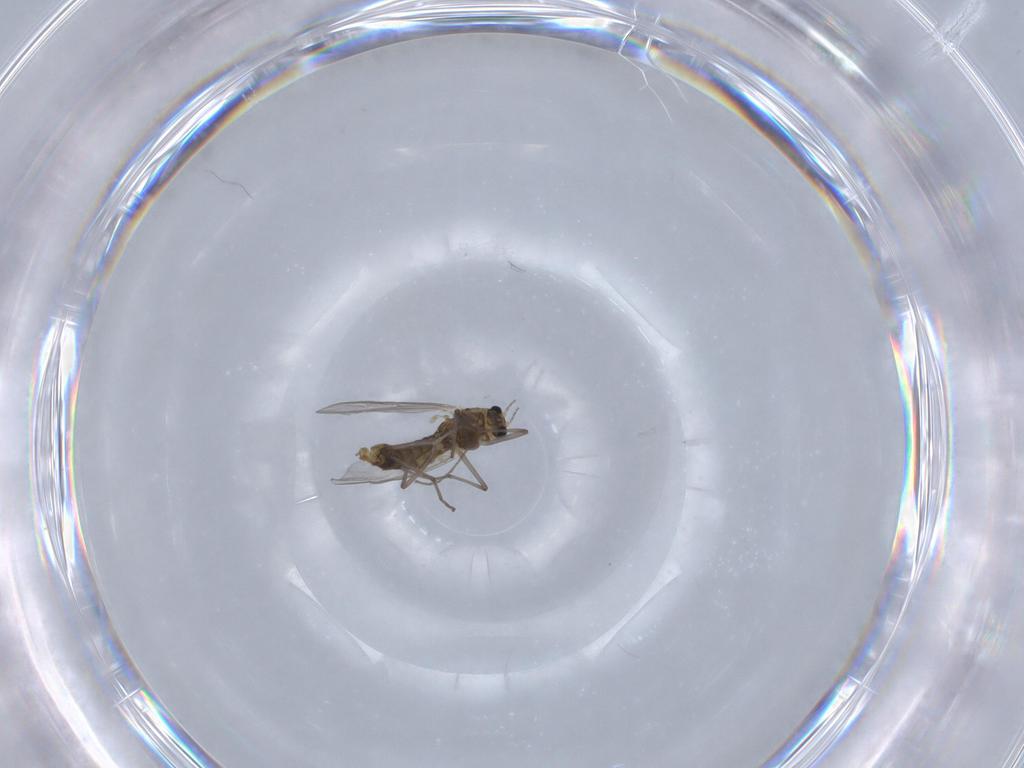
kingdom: Animalia
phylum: Arthropoda
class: Insecta
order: Diptera
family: Chironomidae
